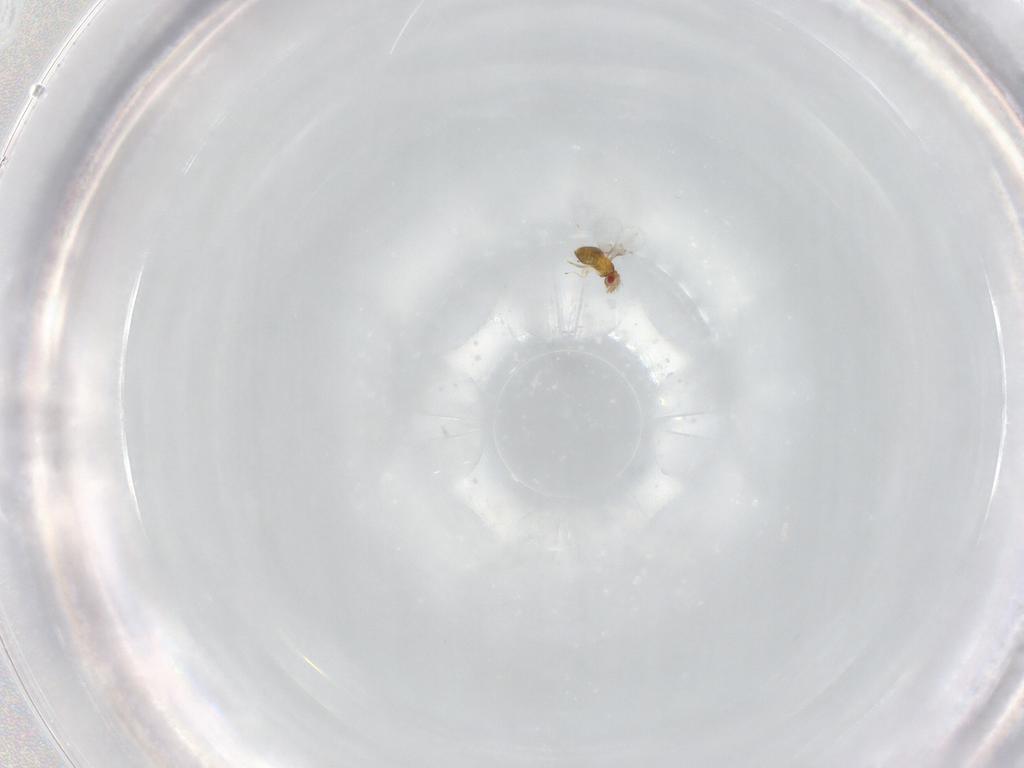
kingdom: Animalia
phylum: Arthropoda
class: Insecta
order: Hymenoptera
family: Trichogrammatidae
